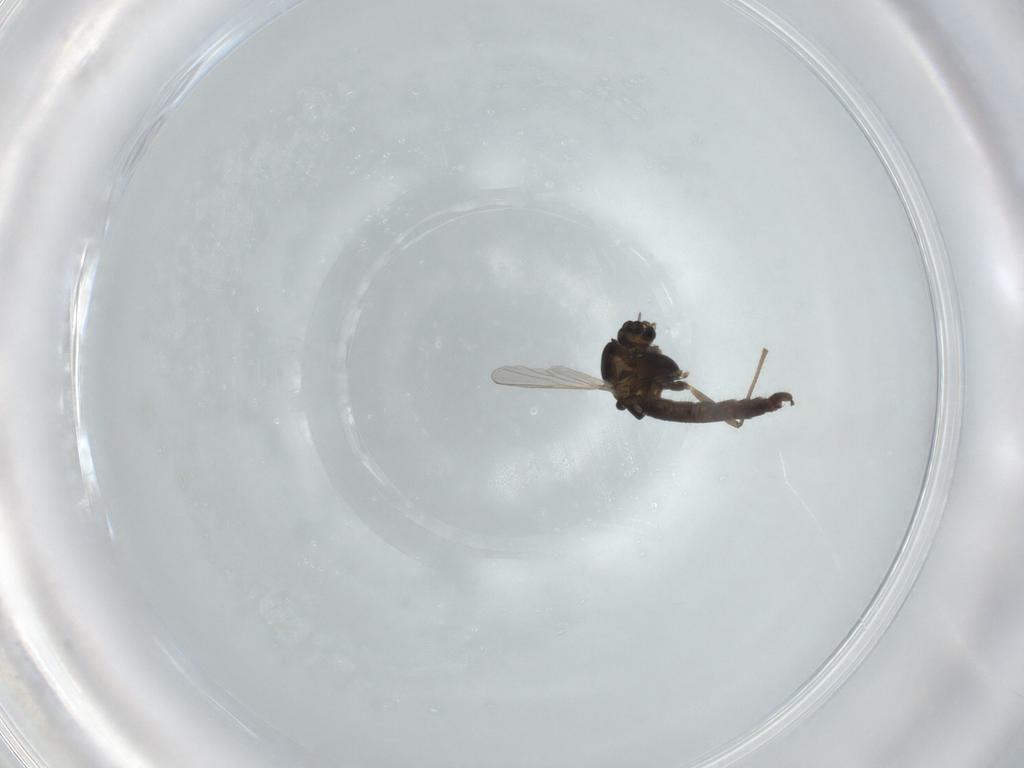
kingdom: Animalia
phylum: Arthropoda
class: Insecta
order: Diptera
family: Chironomidae
